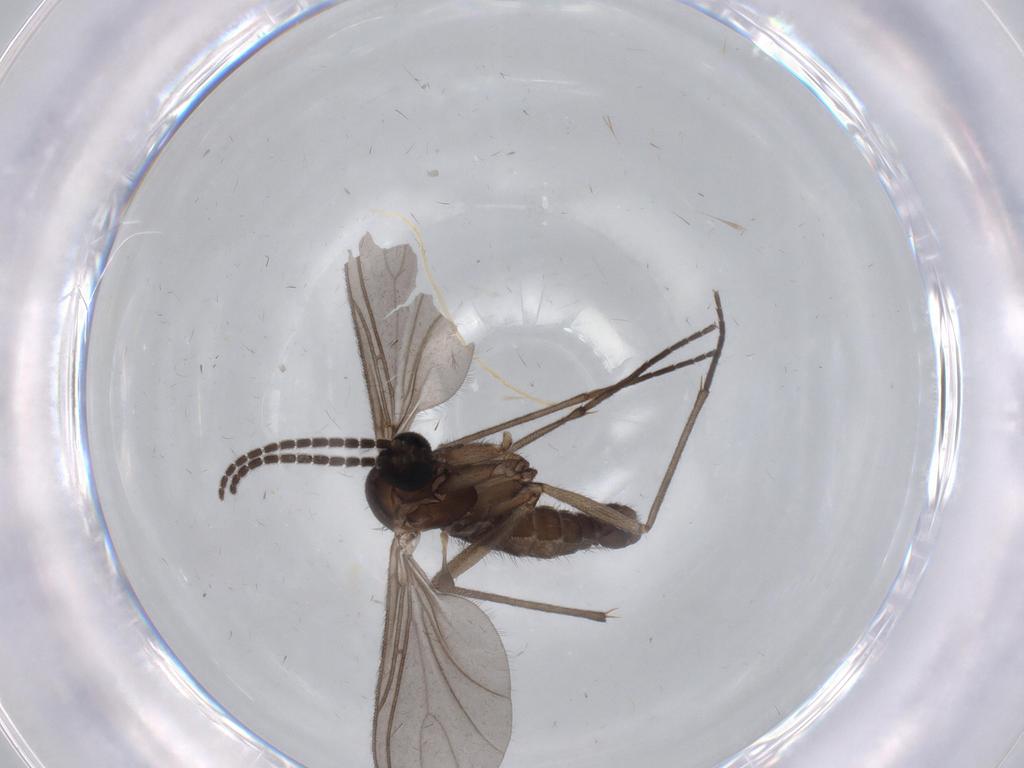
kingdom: Animalia
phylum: Arthropoda
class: Insecta
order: Diptera
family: Sciaridae
